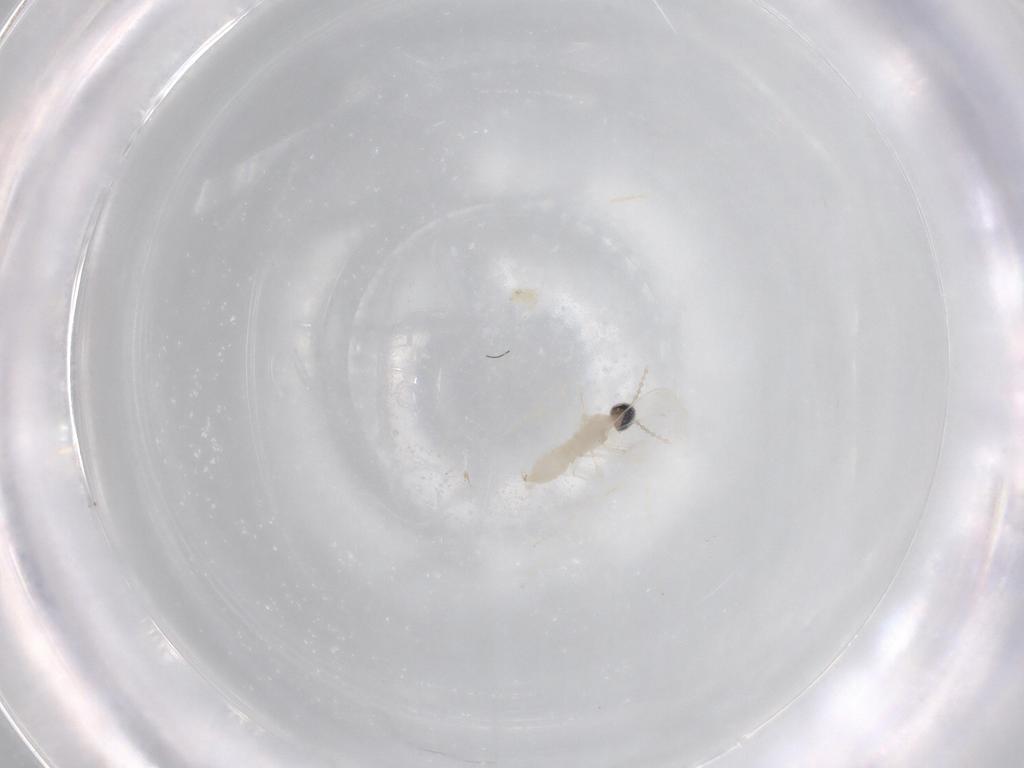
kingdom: Animalia
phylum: Arthropoda
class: Insecta
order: Diptera
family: Cecidomyiidae
